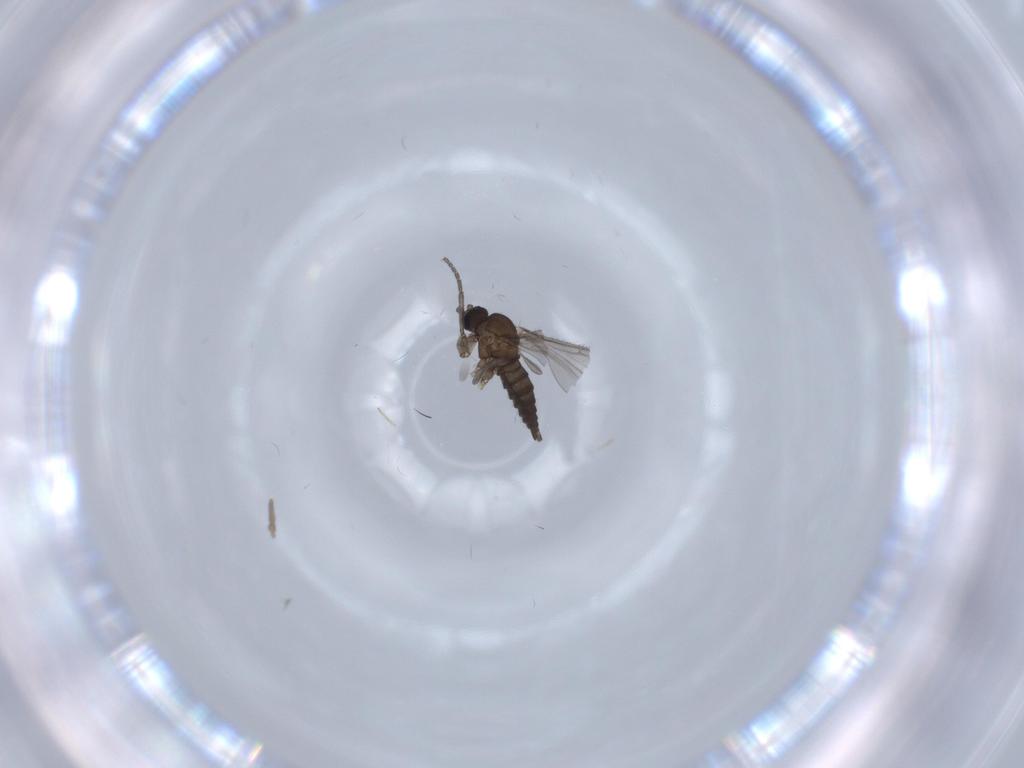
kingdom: Animalia
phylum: Arthropoda
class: Insecta
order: Diptera
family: Sciaridae
